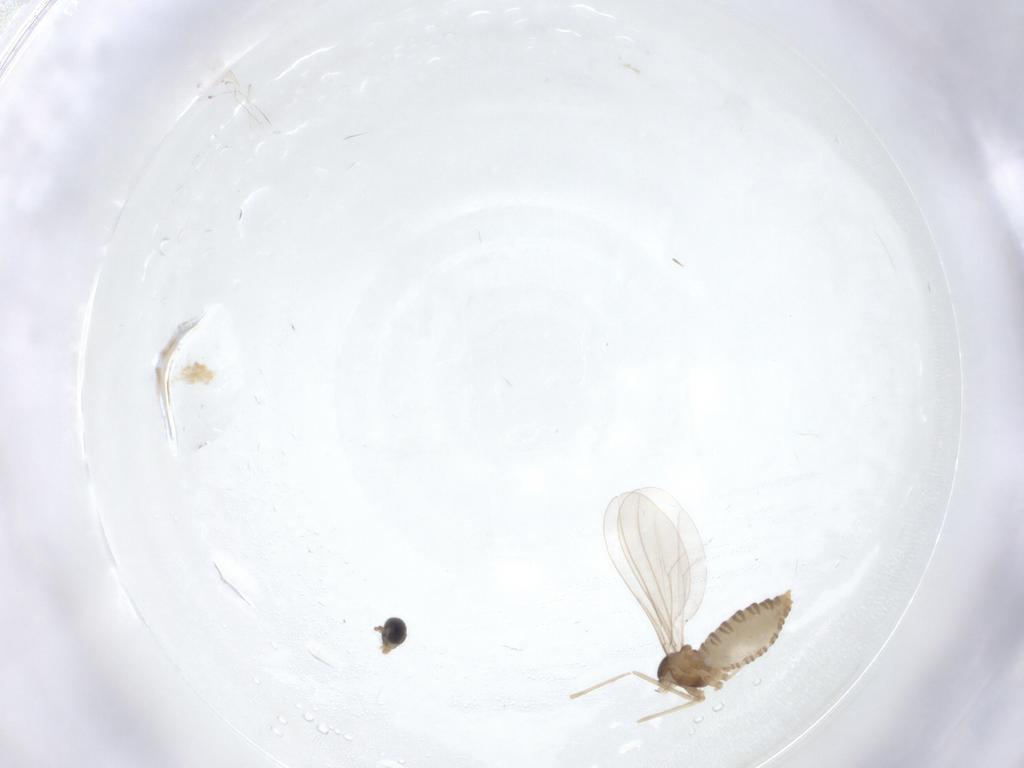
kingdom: Animalia
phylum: Arthropoda
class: Insecta
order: Diptera
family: Cecidomyiidae
